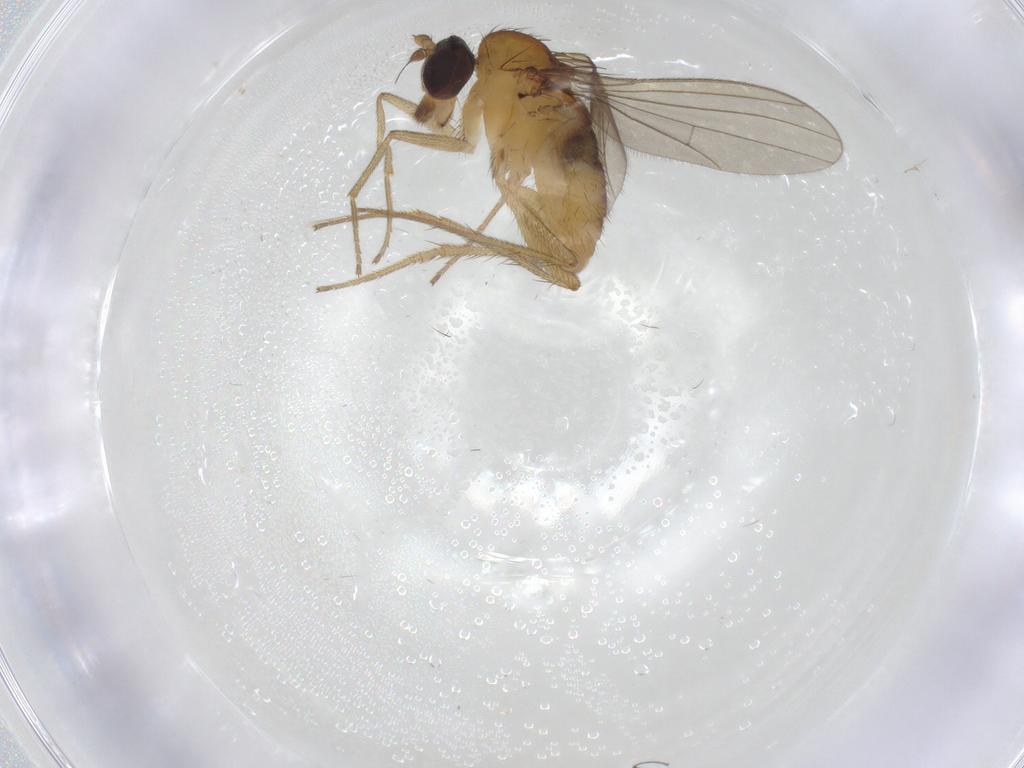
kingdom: Animalia
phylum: Arthropoda
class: Insecta
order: Diptera
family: Dolichopodidae
